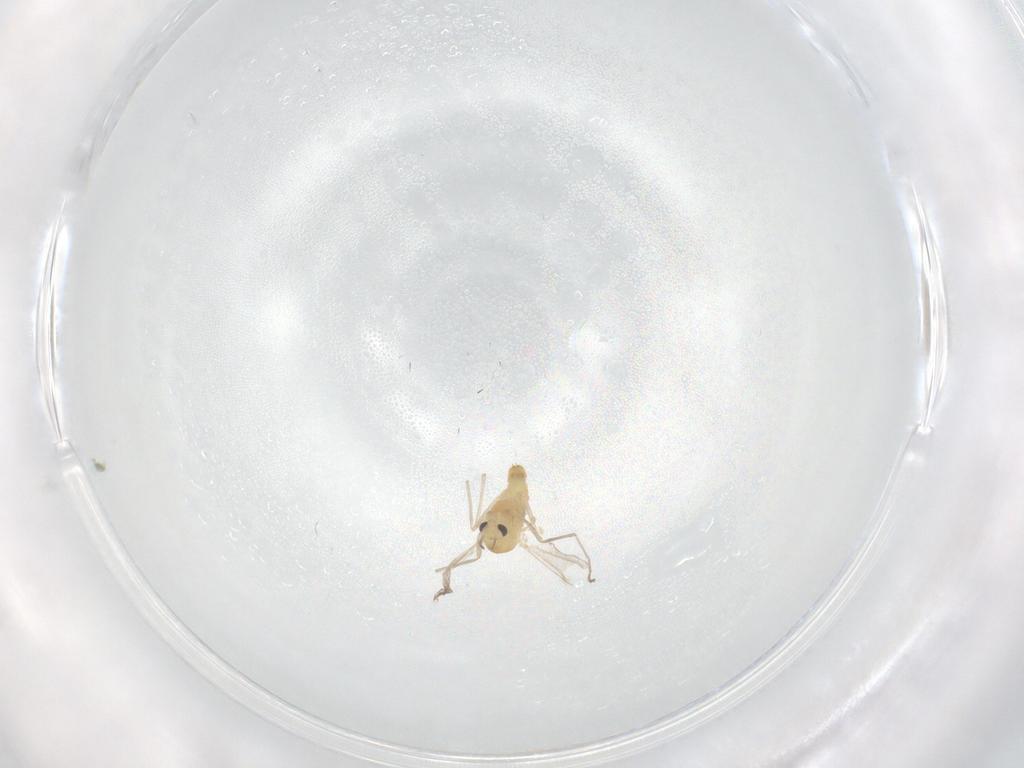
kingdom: Animalia
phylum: Arthropoda
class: Insecta
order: Diptera
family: Chironomidae
